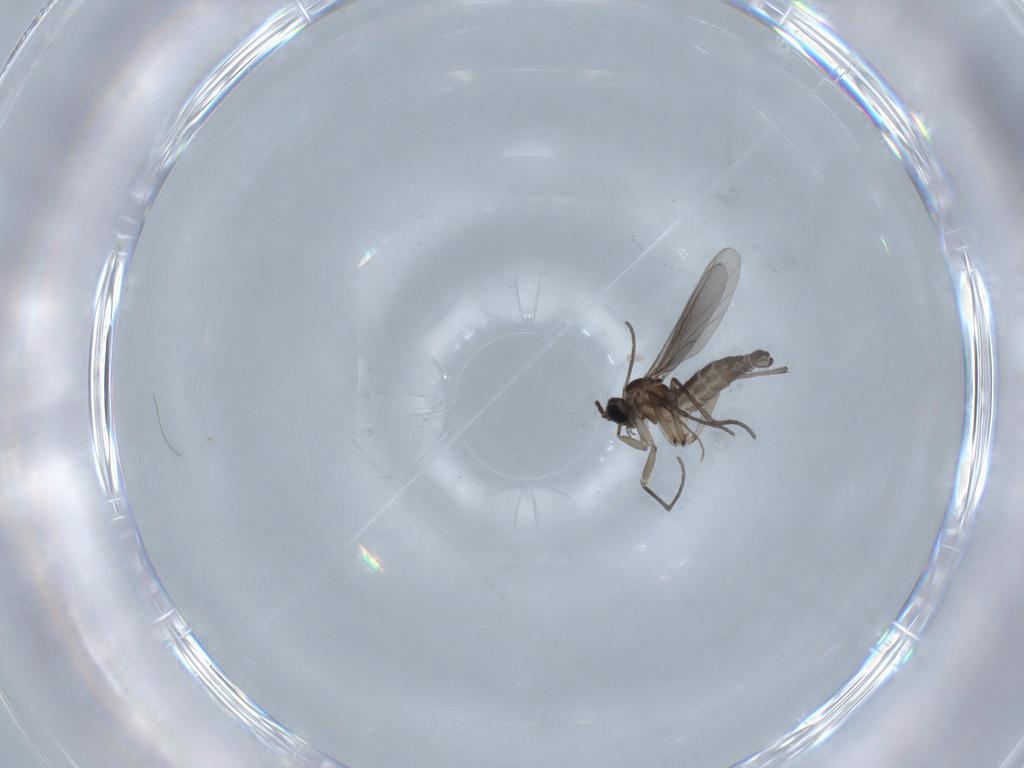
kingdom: Animalia
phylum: Arthropoda
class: Insecta
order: Diptera
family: Sciaridae
